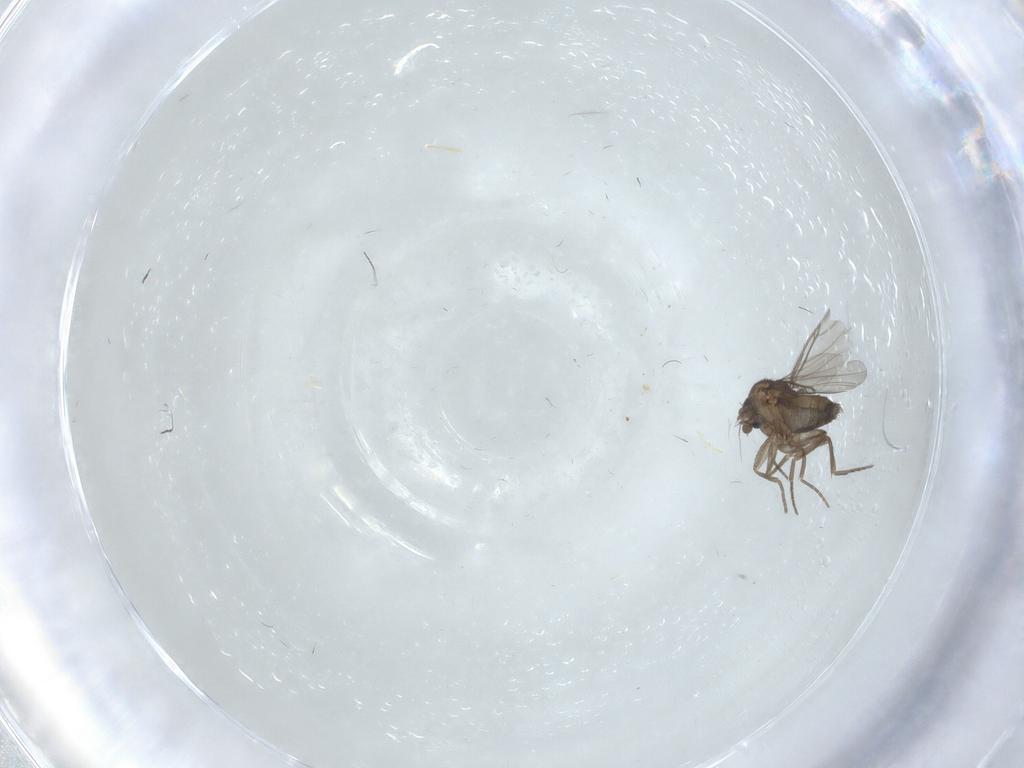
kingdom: Animalia
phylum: Arthropoda
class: Insecta
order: Diptera
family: Phoridae
